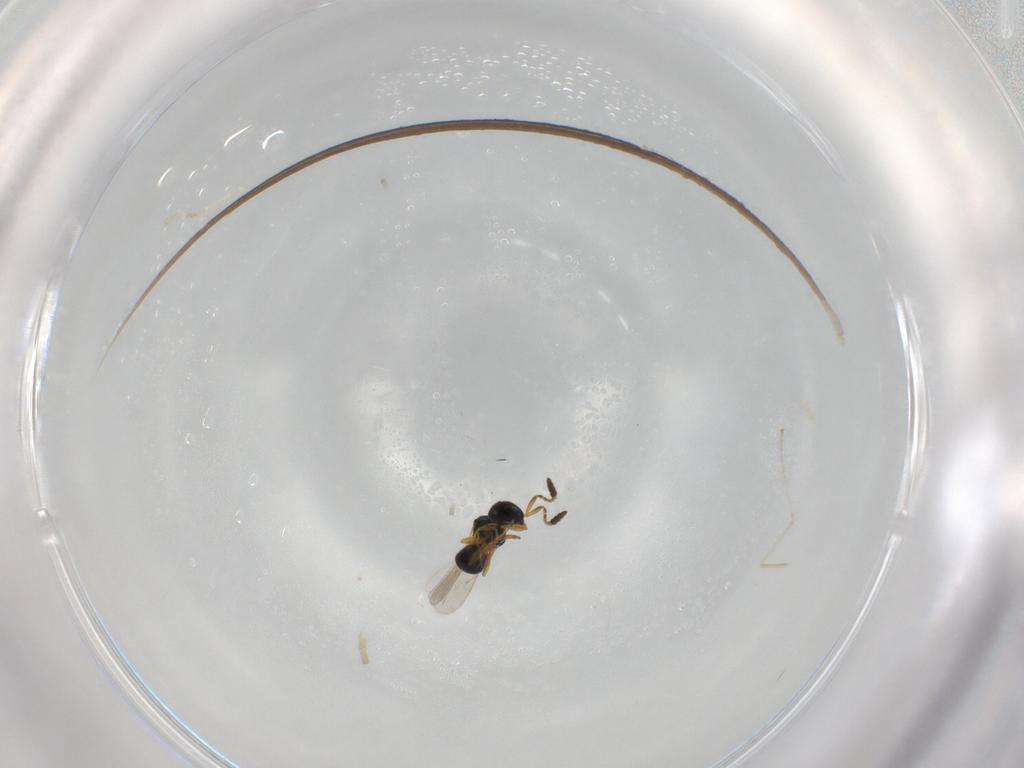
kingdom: Animalia
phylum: Arthropoda
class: Insecta
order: Hymenoptera
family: Scelionidae
